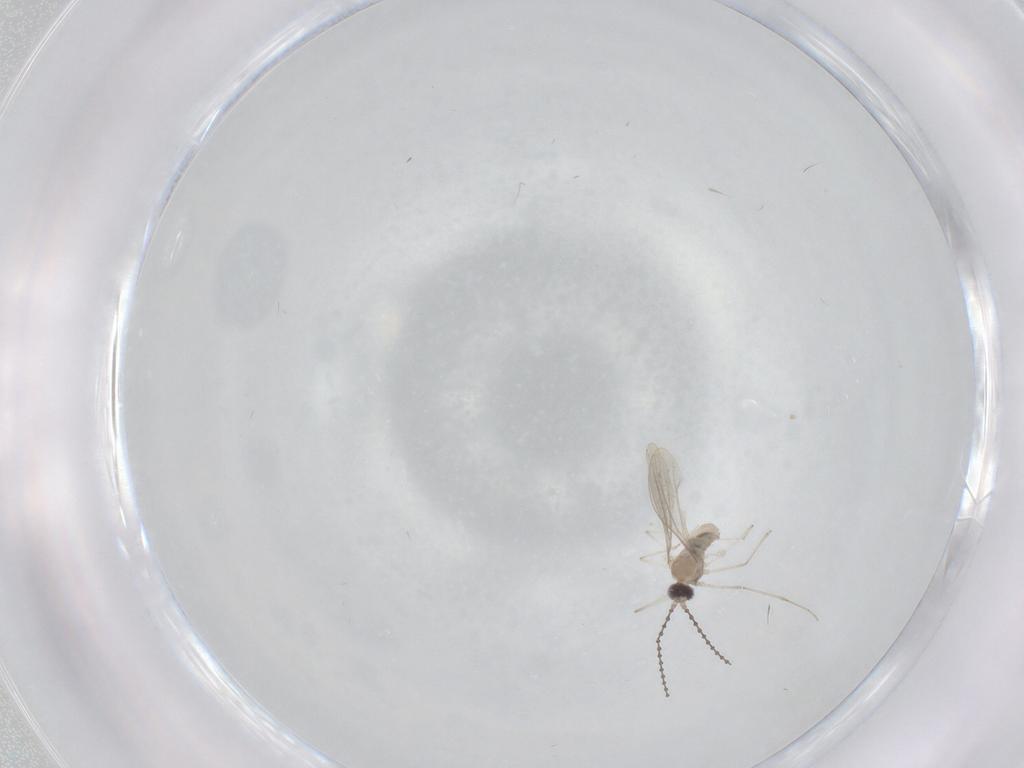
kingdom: Animalia
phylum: Arthropoda
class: Insecta
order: Diptera
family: Cecidomyiidae
